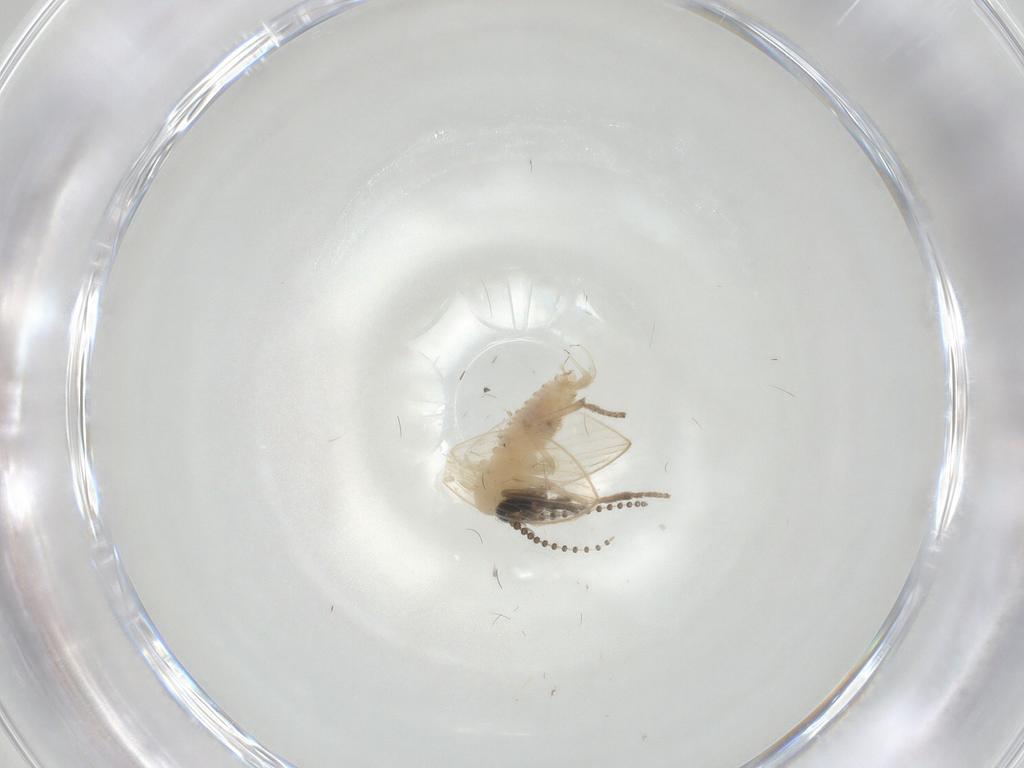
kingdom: Animalia
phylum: Arthropoda
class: Insecta
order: Diptera
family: Psychodidae
